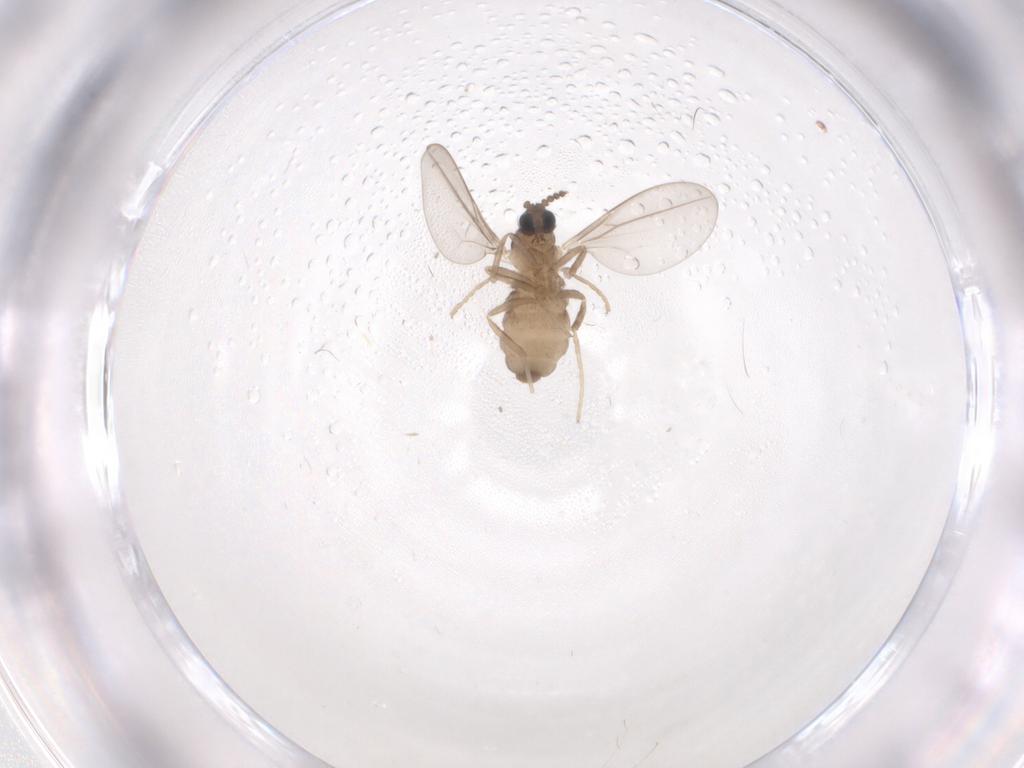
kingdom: Animalia
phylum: Arthropoda
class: Insecta
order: Diptera
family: Cecidomyiidae
